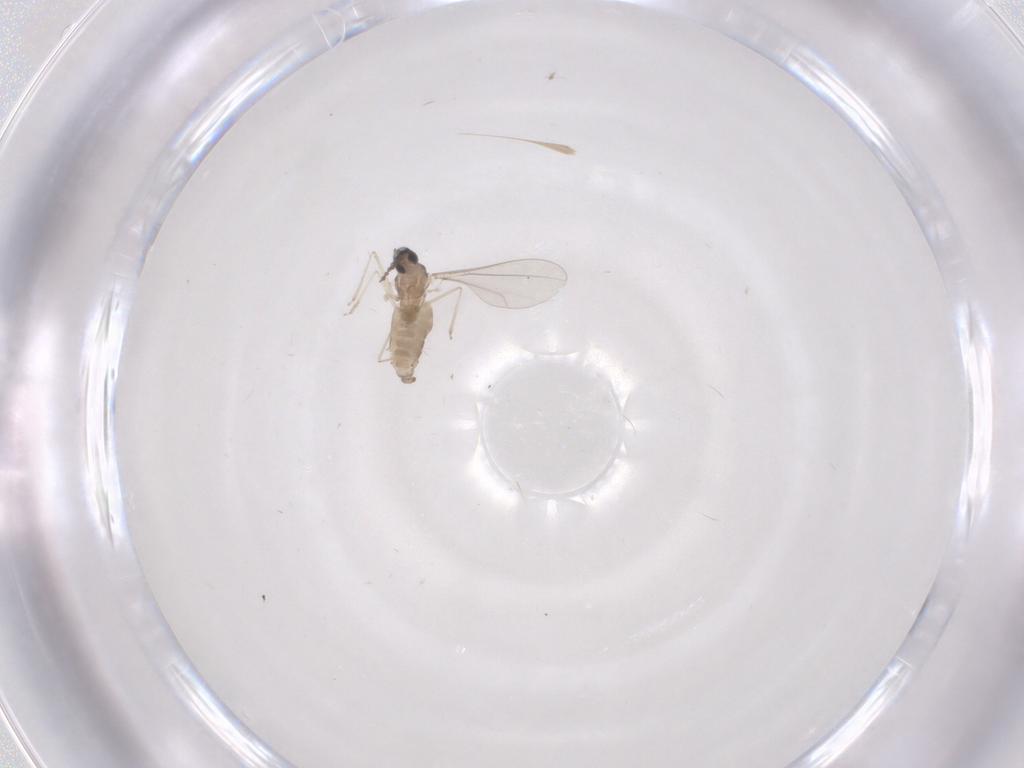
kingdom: Animalia
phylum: Arthropoda
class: Insecta
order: Diptera
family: Cecidomyiidae
